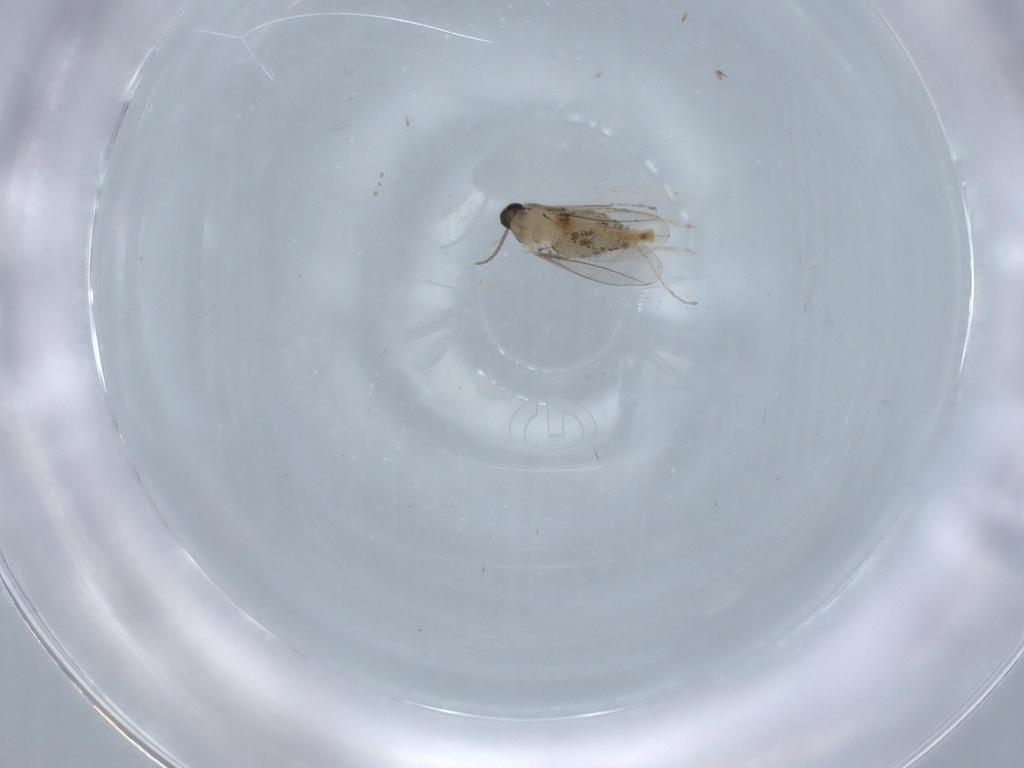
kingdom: Animalia
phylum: Arthropoda
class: Insecta
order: Diptera
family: Cecidomyiidae
